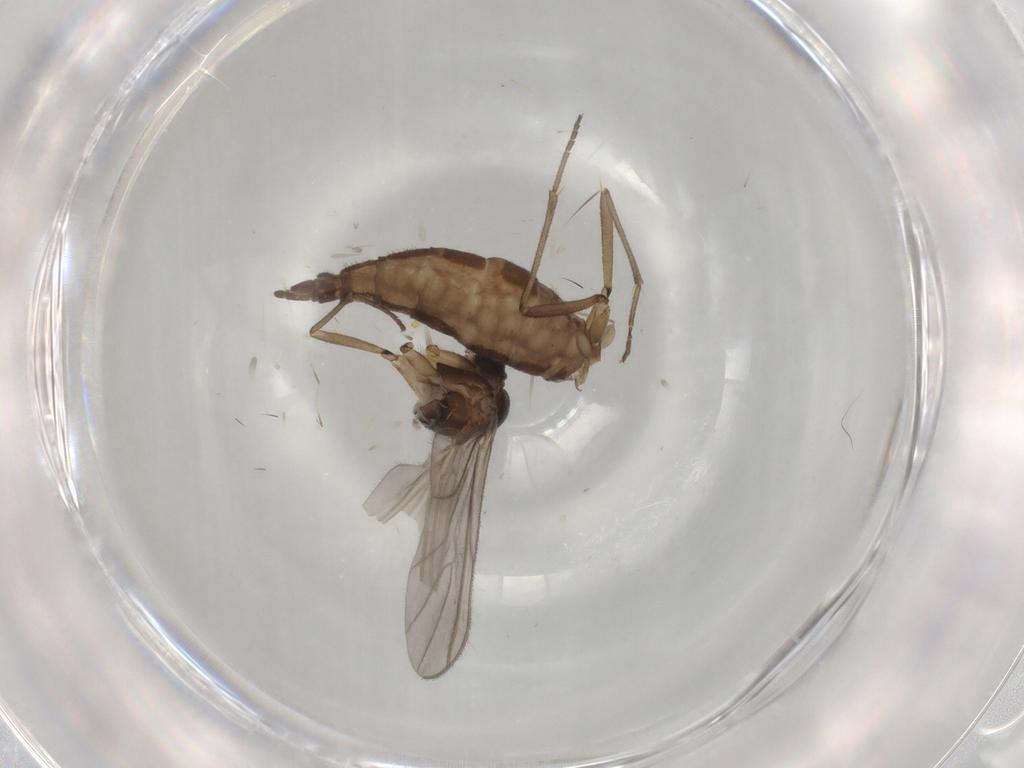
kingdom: Animalia
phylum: Arthropoda
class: Insecta
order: Diptera
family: Sciaridae
